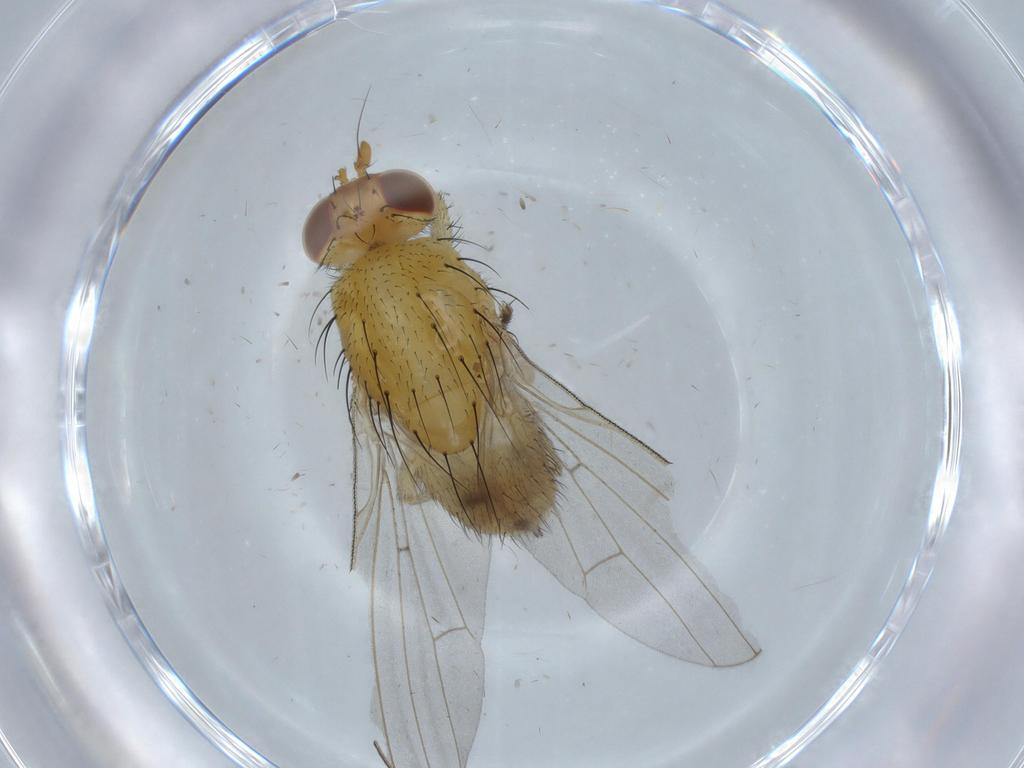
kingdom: Animalia
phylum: Arthropoda
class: Insecta
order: Diptera
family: Lauxaniidae
